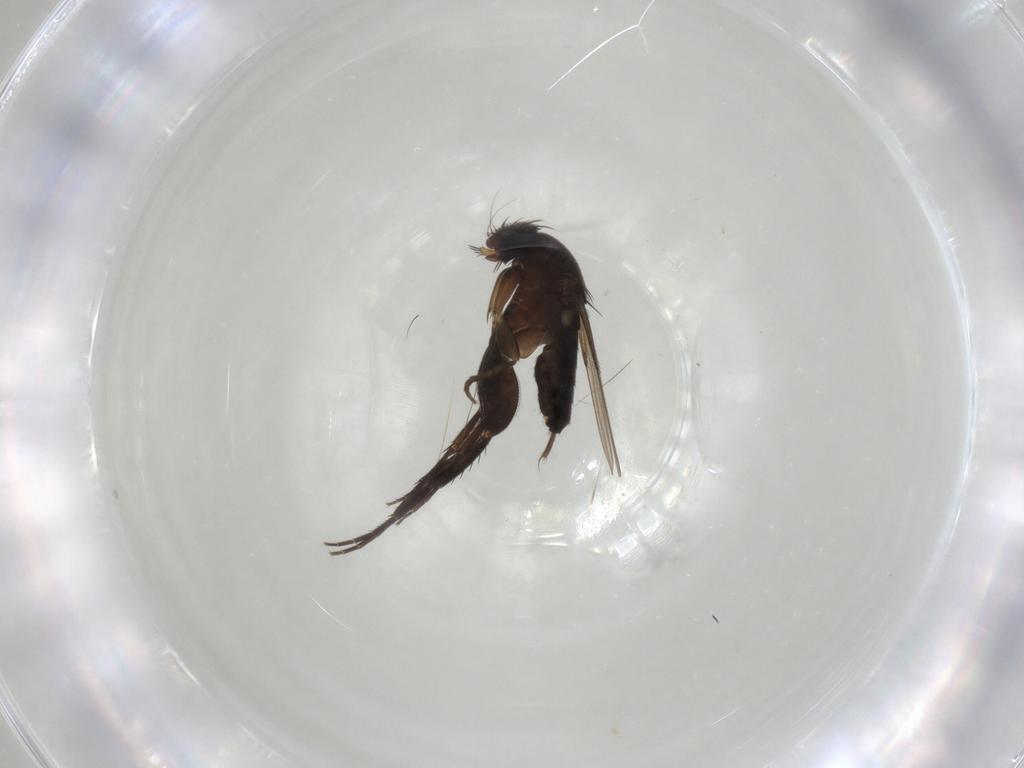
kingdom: Animalia
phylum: Arthropoda
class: Insecta
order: Diptera
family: Phoridae
